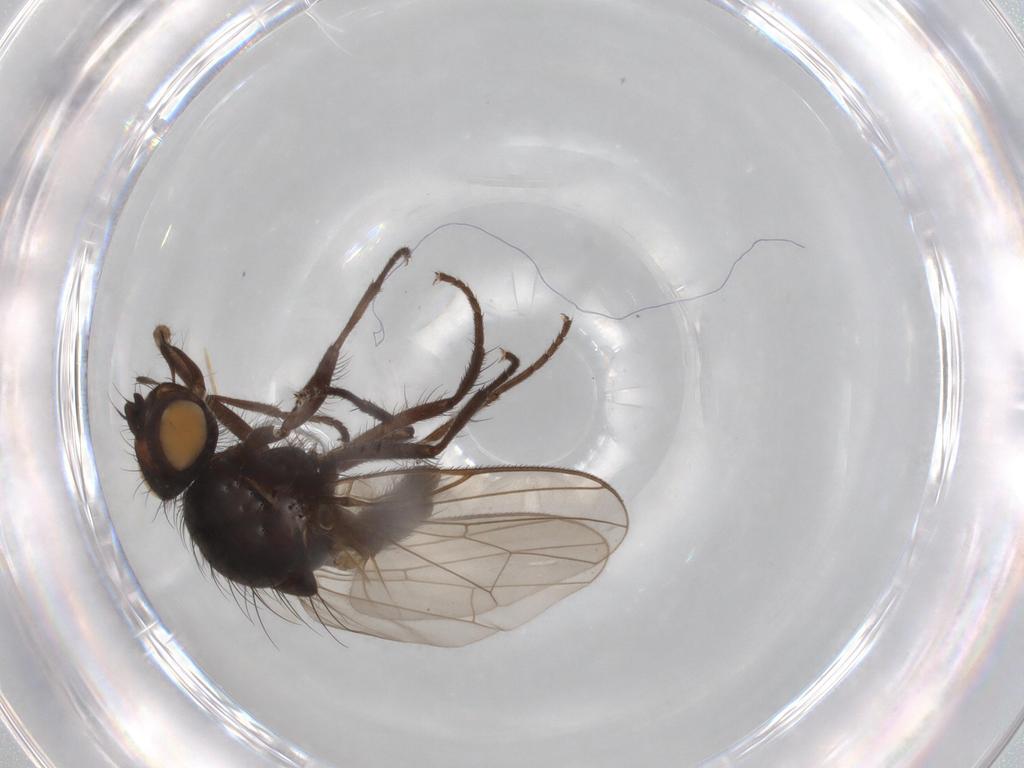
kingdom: Animalia
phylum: Arthropoda
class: Insecta
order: Diptera
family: Anthomyiidae
